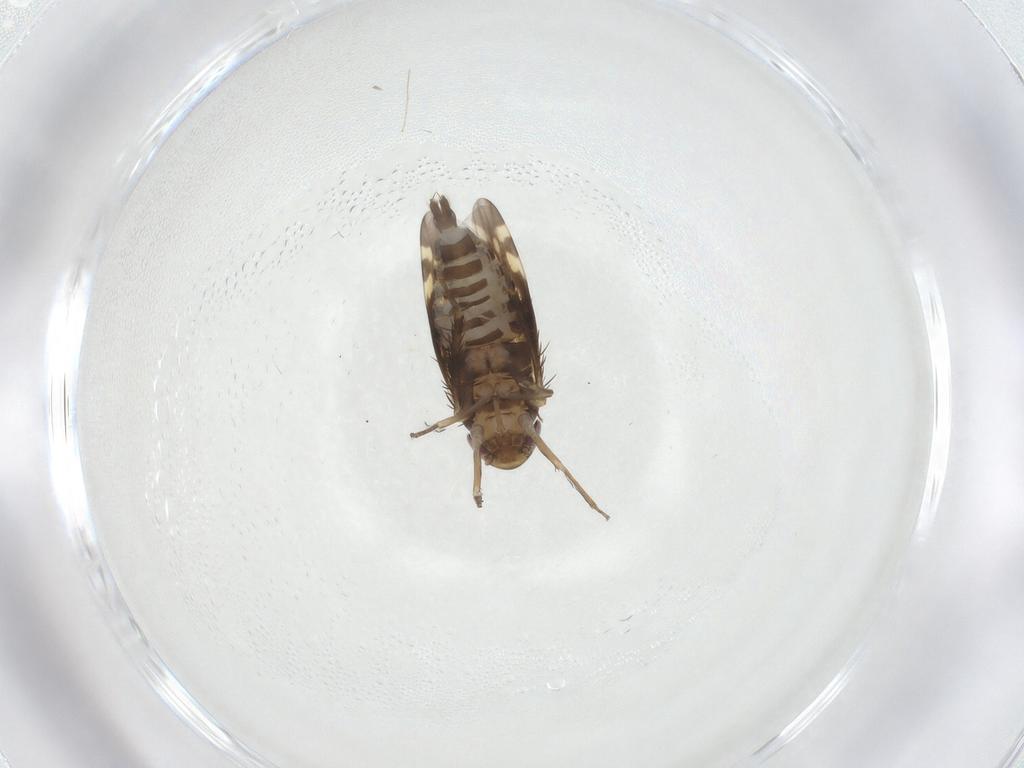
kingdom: Animalia
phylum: Arthropoda
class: Insecta
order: Hemiptera
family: Cicadellidae
